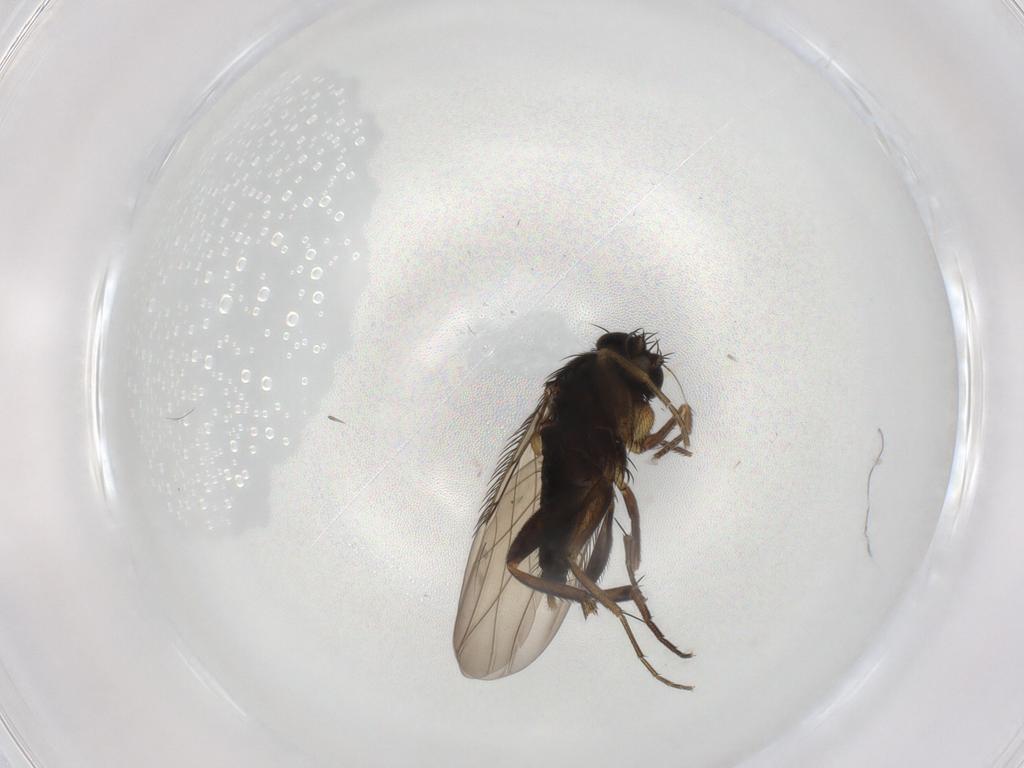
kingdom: Animalia
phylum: Arthropoda
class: Insecta
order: Diptera
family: Phoridae
